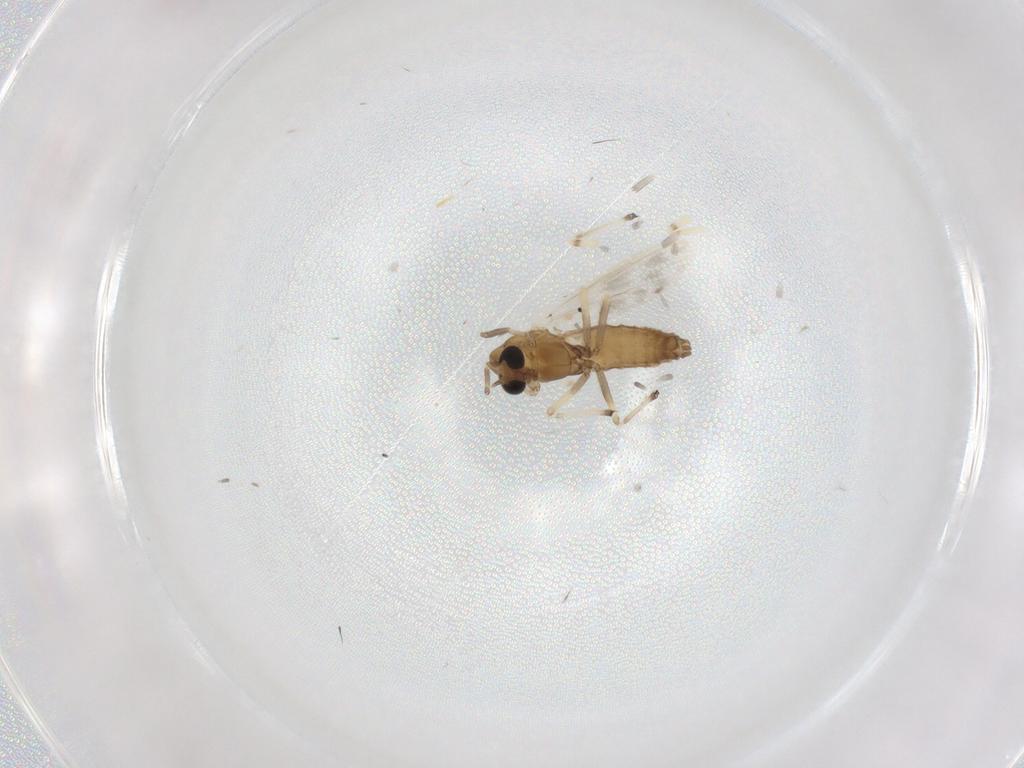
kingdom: Animalia
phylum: Arthropoda
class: Insecta
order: Diptera
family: Chironomidae
